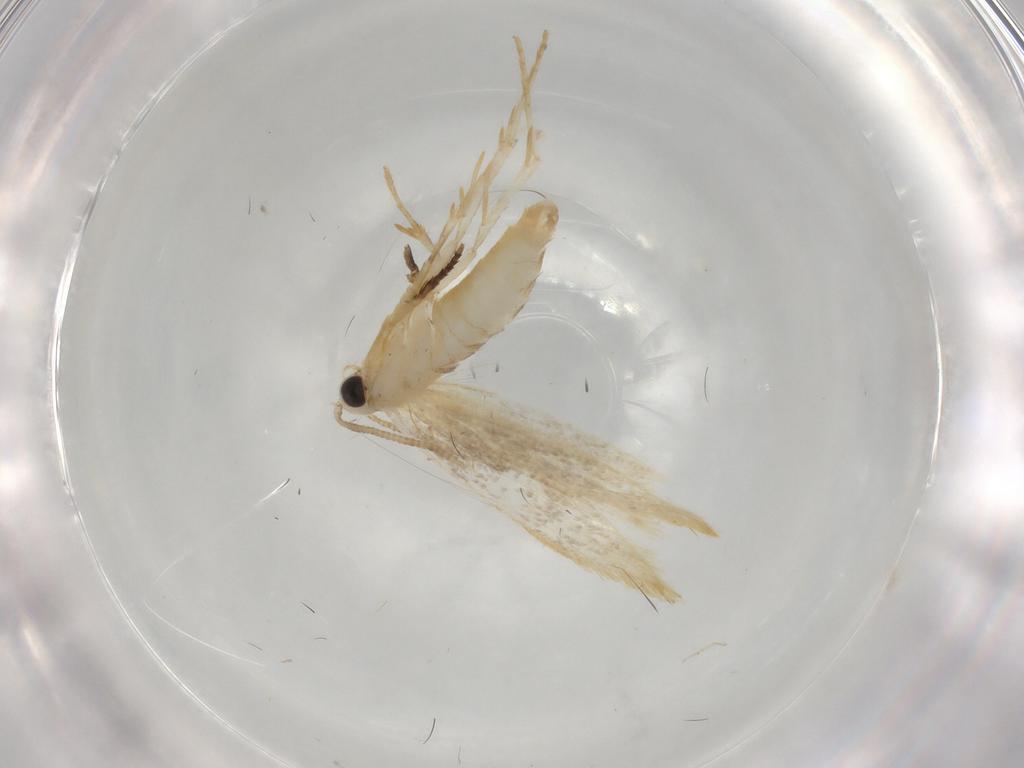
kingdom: Animalia
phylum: Arthropoda
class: Insecta
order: Lepidoptera
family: Tineidae
